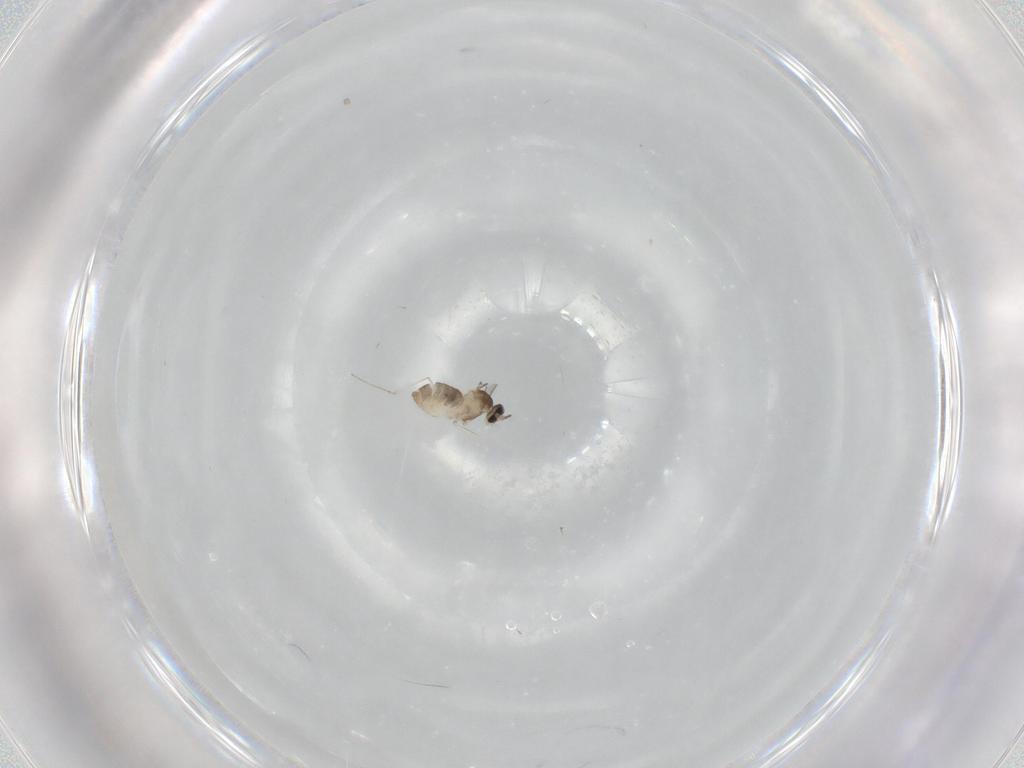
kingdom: Animalia
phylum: Arthropoda
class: Insecta
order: Diptera
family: Cecidomyiidae
